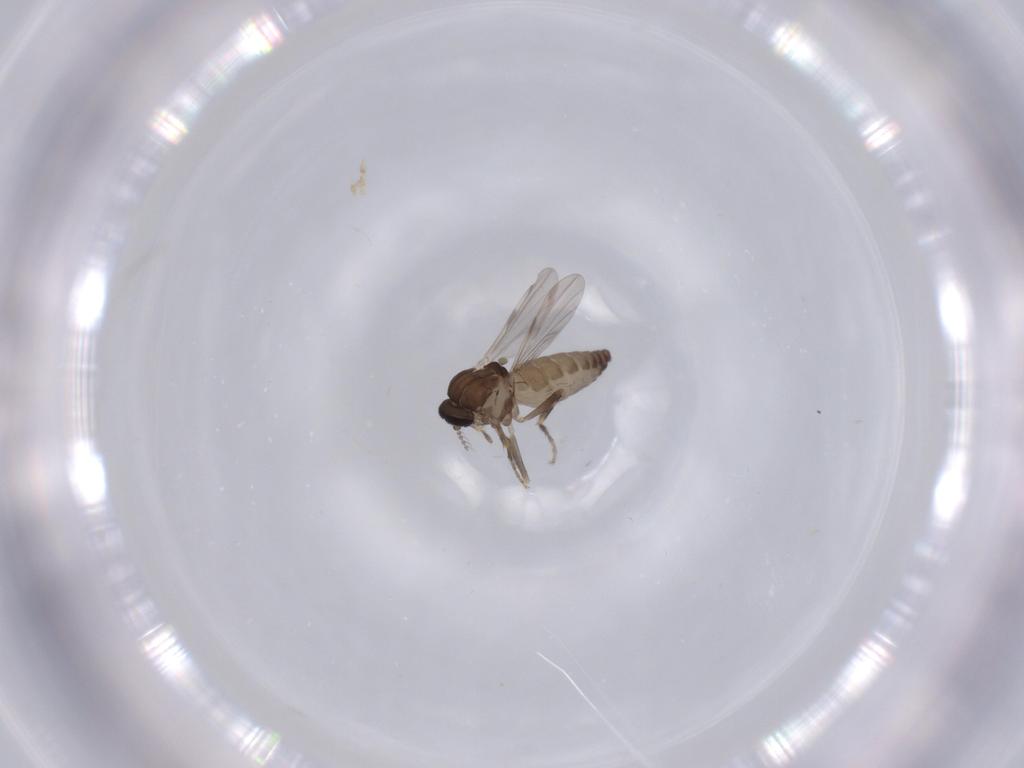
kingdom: Animalia
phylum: Arthropoda
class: Insecta
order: Diptera
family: Ceratopogonidae
